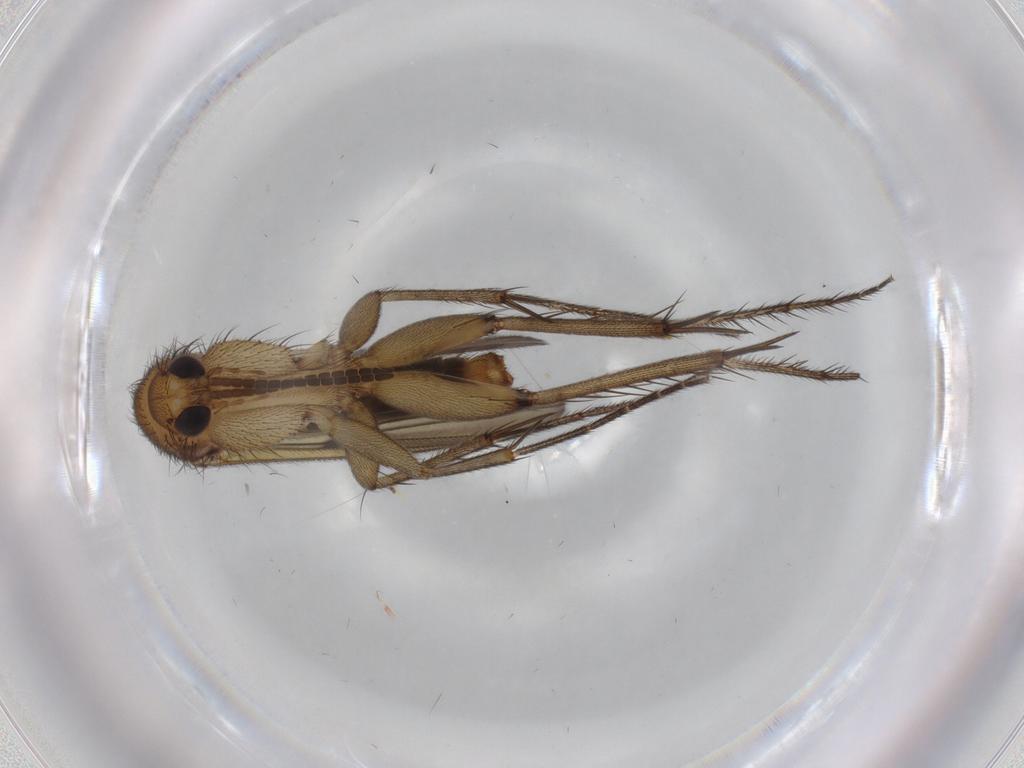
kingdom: Animalia
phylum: Arthropoda
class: Insecta
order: Diptera
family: Mycetophilidae
